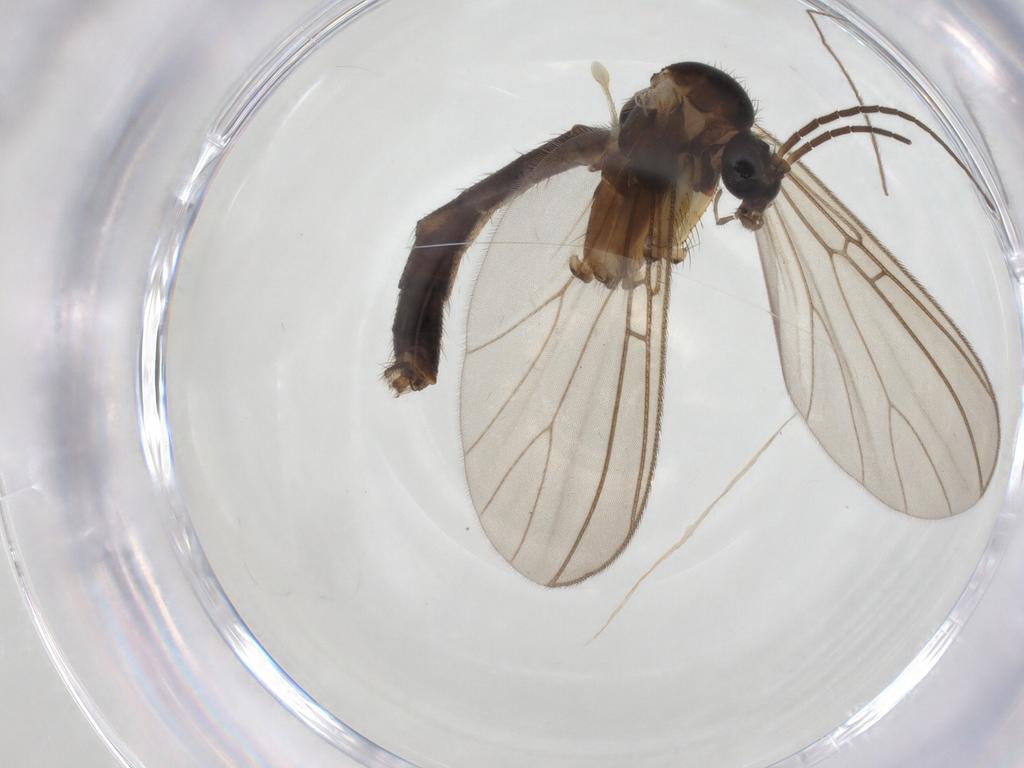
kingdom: Animalia
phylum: Arthropoda
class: Insecta
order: Diptera
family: Mycetophilidae
